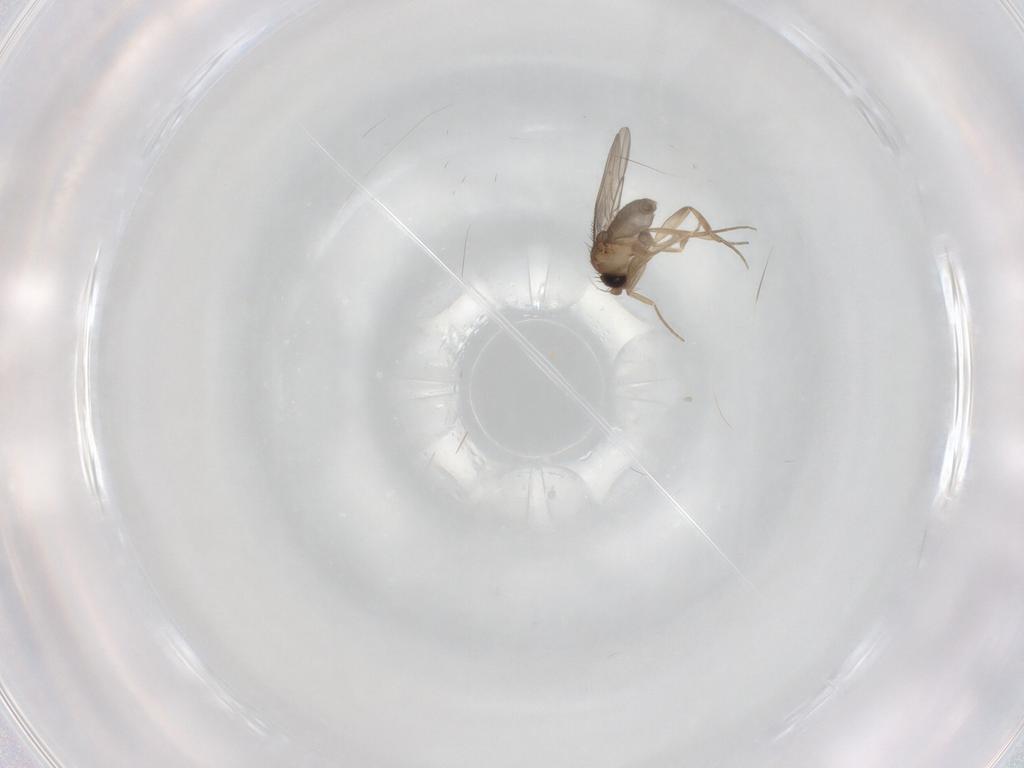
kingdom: Animalia
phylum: Arthropoda
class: Insecta
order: Diptera
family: Phoridae
